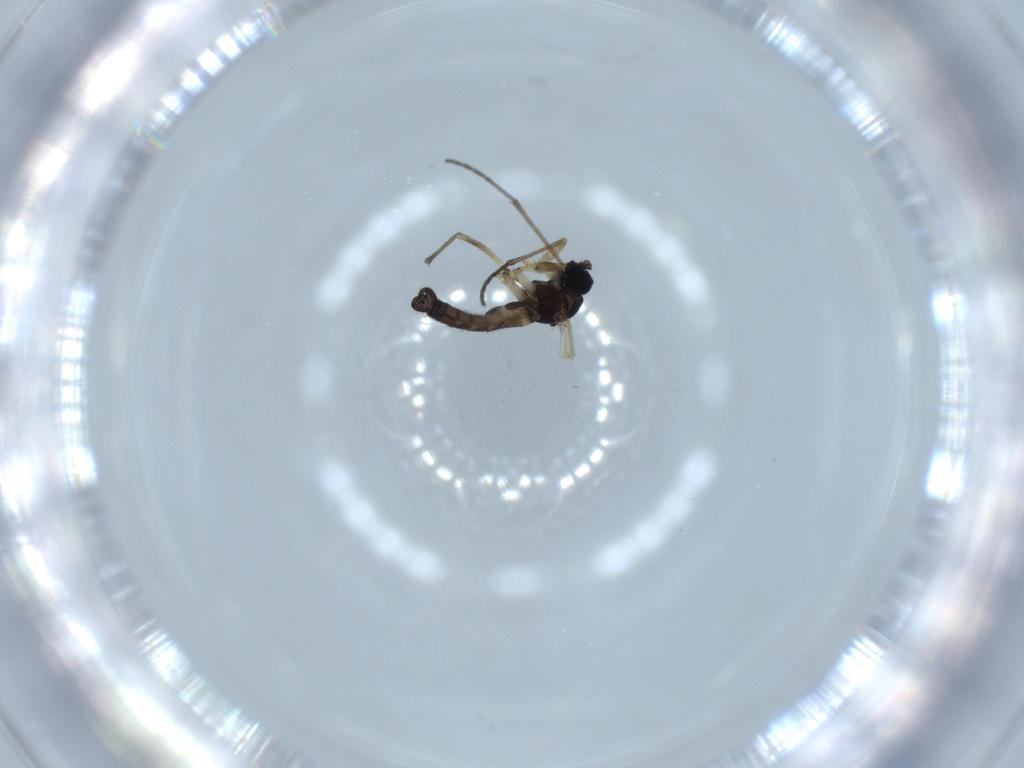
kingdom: Animalia
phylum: Arthropoda
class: Insecta
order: Diptera
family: Sciaridae
